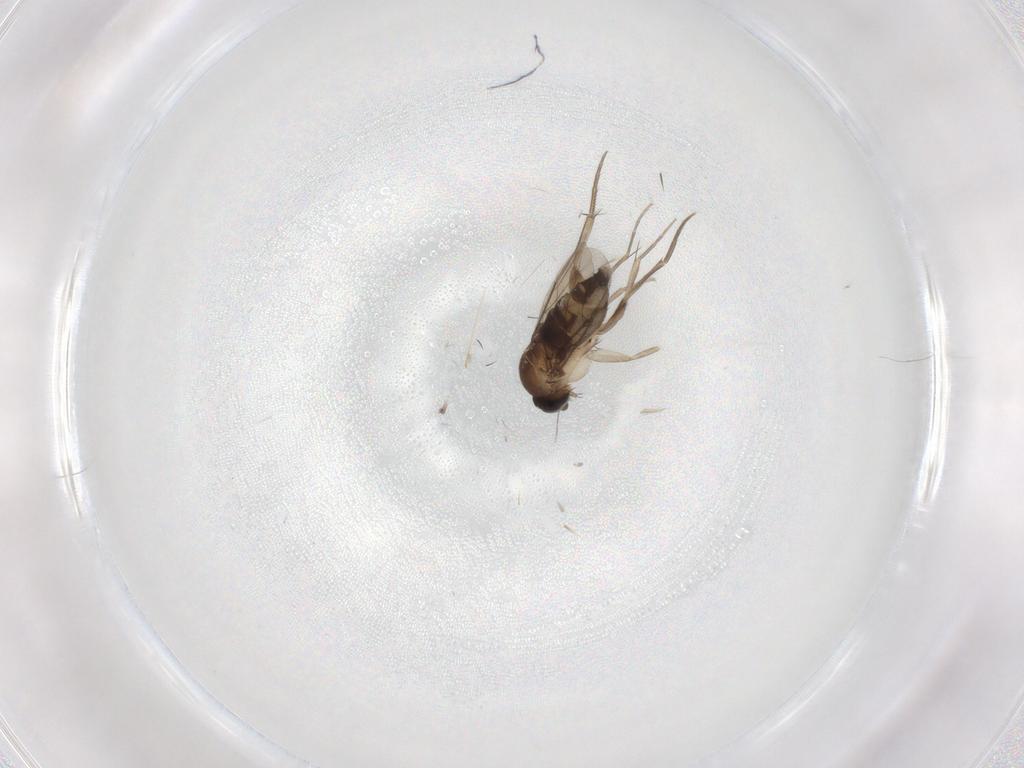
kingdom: Animalia
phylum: Arthropoda
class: Insecta
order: Diptera
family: Phoridae
